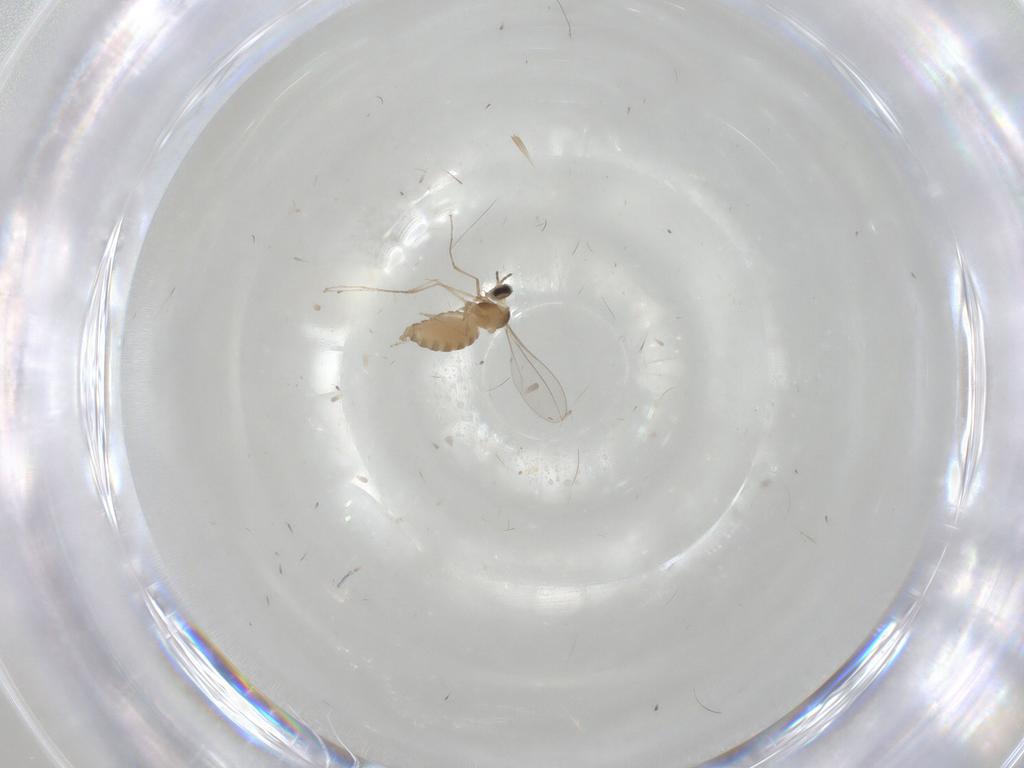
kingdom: Animalia
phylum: Arthropoda
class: Insecta
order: Diptera
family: Cecidomyiidae
